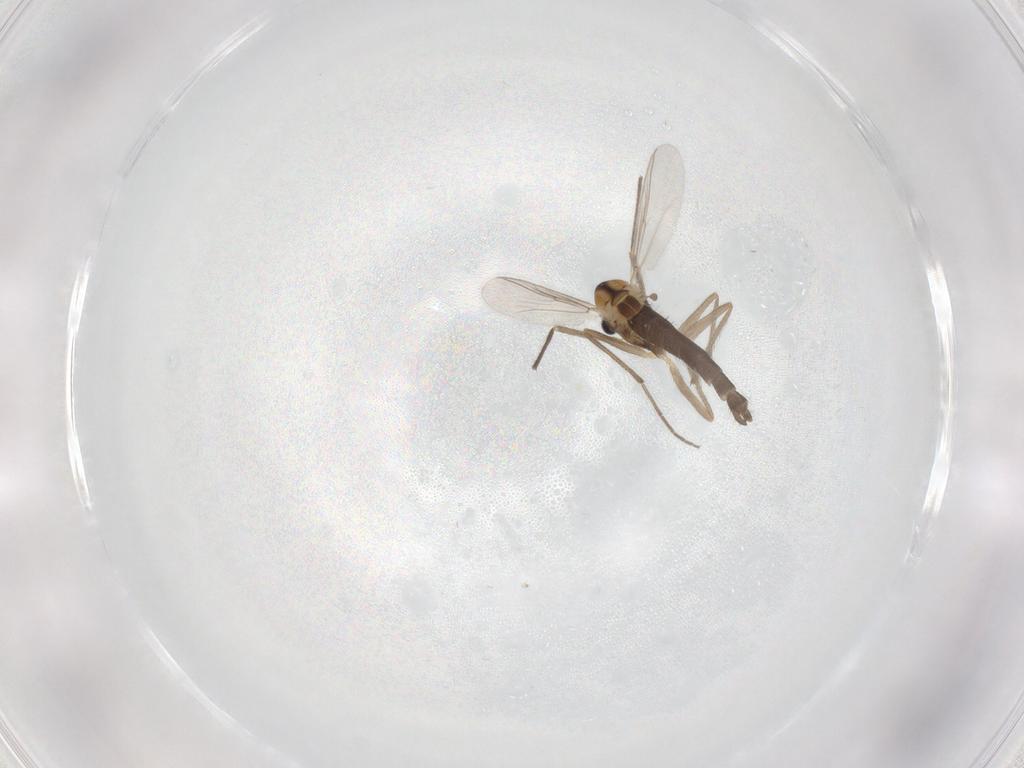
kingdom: Animalia
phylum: Arthropoda
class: Insecta
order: Diptera
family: Chironomidae
